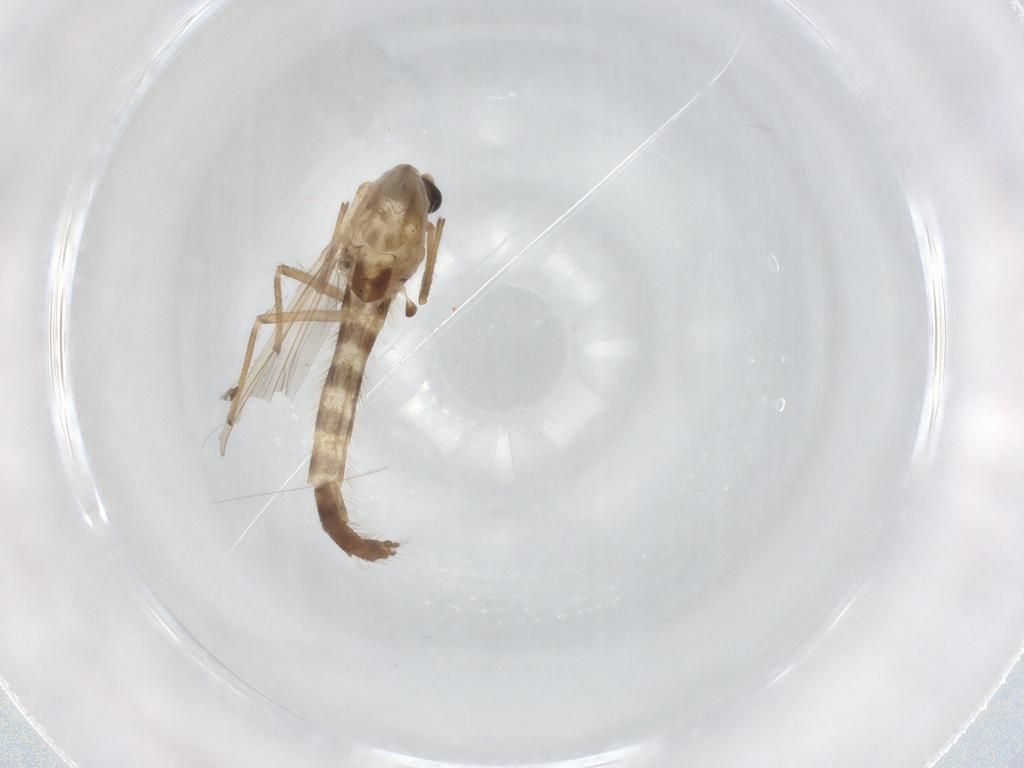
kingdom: Animalia
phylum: Arthropoda
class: Insecta
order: Diptera
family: Chironomidae
